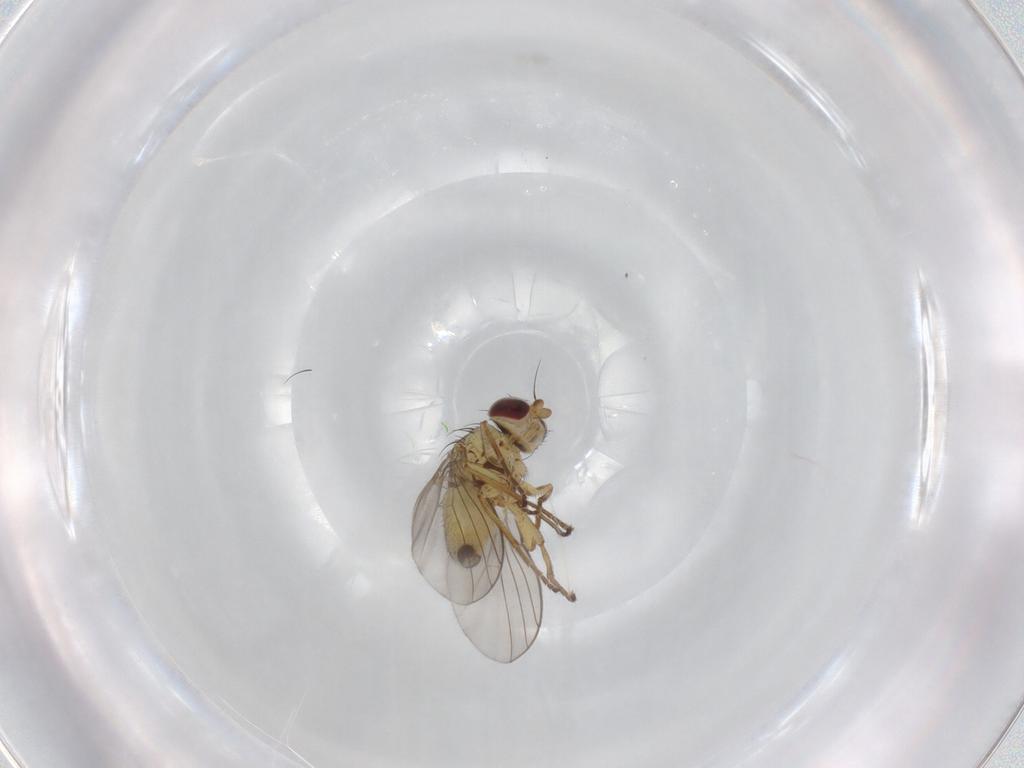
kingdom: Animalia
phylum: Arthropoda
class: Insecta
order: Diptera
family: Agromyzidae
